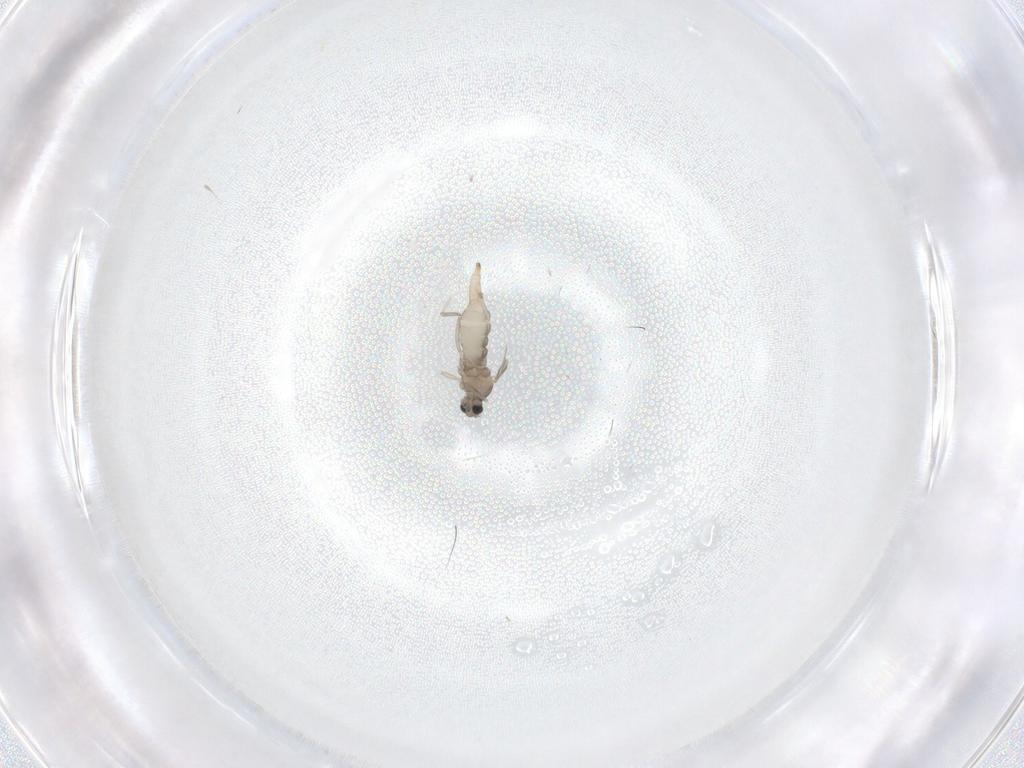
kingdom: Animalia
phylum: Arthropoda
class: Insecta
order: Diptera
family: Cecidomyiidae
